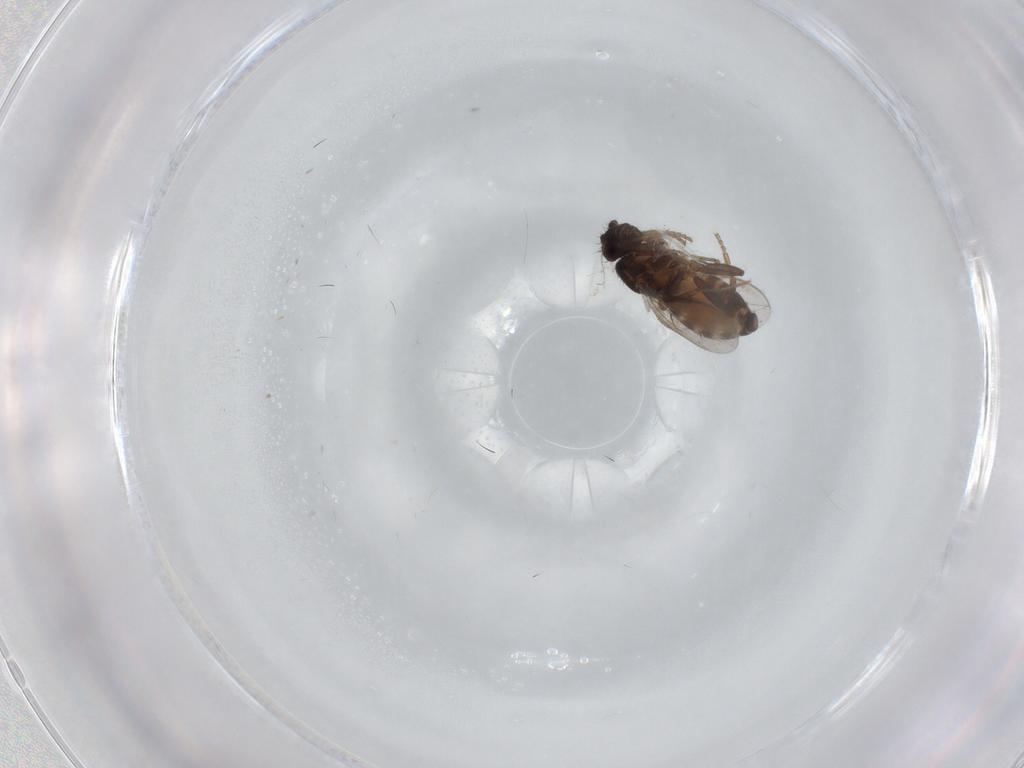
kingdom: Animalia
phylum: Arthropoda
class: Insecta
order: Diptera
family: Sphaeroceridae
